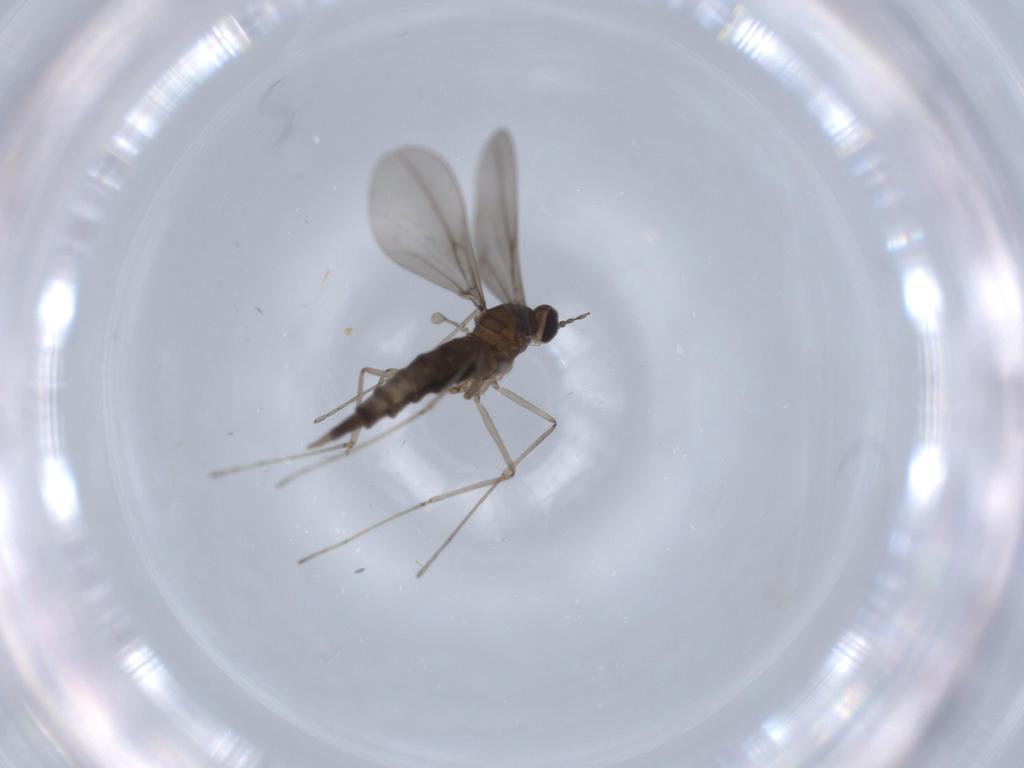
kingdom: Animalia
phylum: Arthropoda
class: Insecta
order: Diptera
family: Cecidomyiidae
